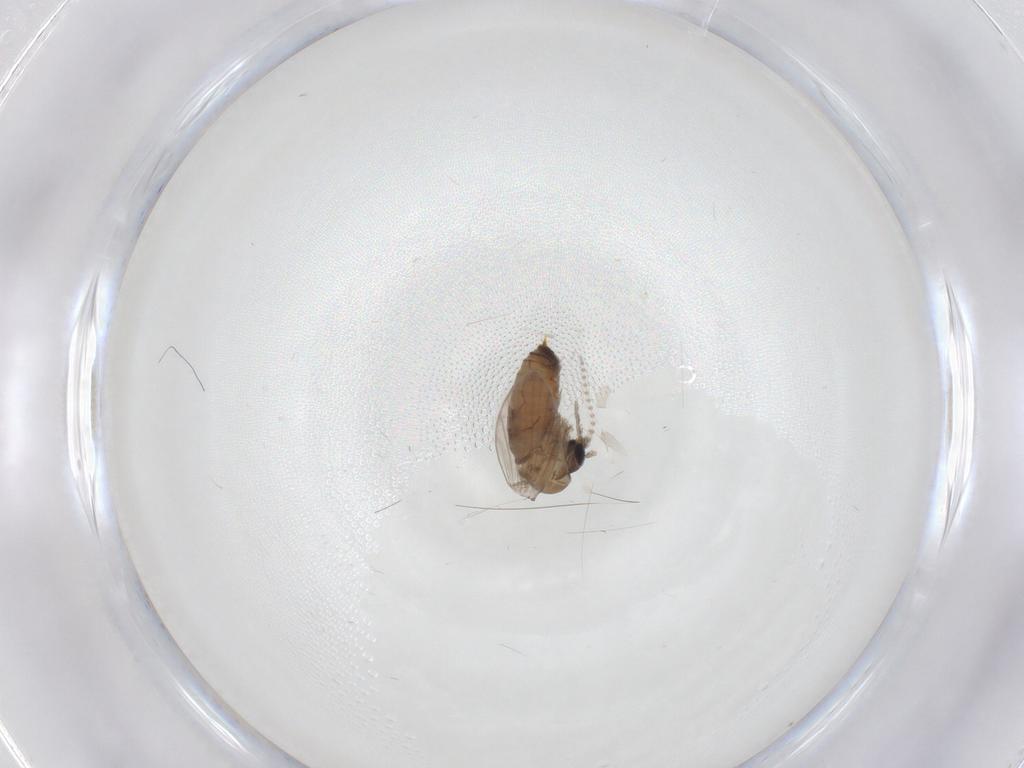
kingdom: Animalia
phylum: Arthropoda
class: Insecta
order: Diptera
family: Psychodidae
